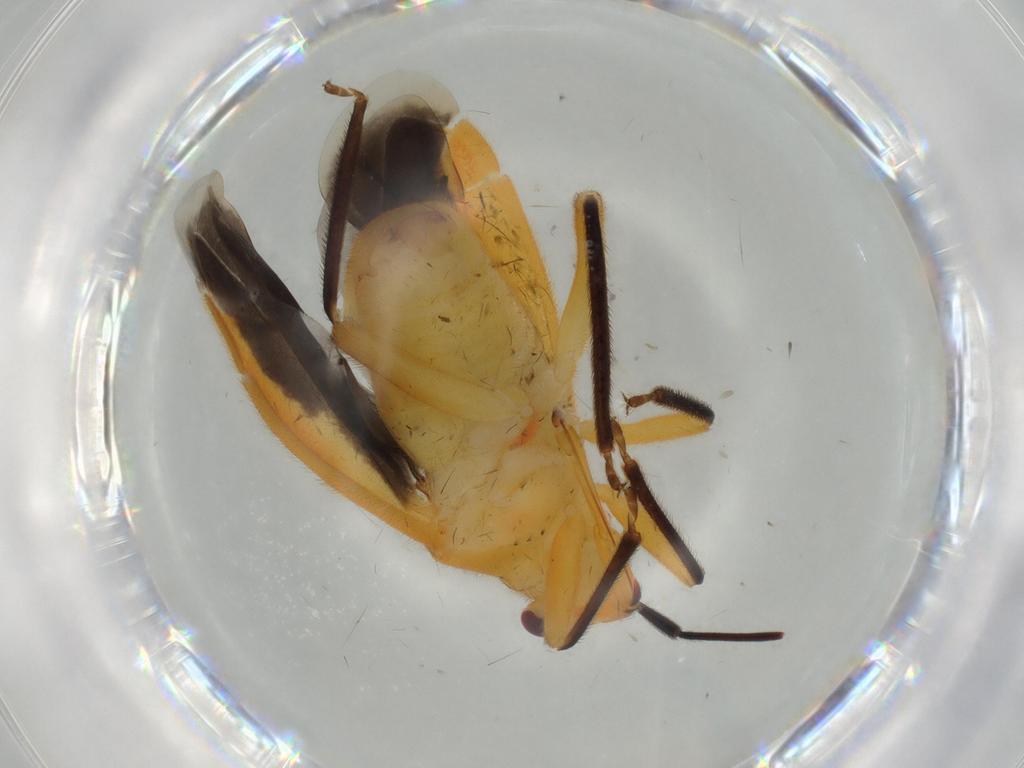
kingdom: Animalia
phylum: Arthropoda
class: Insecta
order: Hemiptera
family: Miridae
